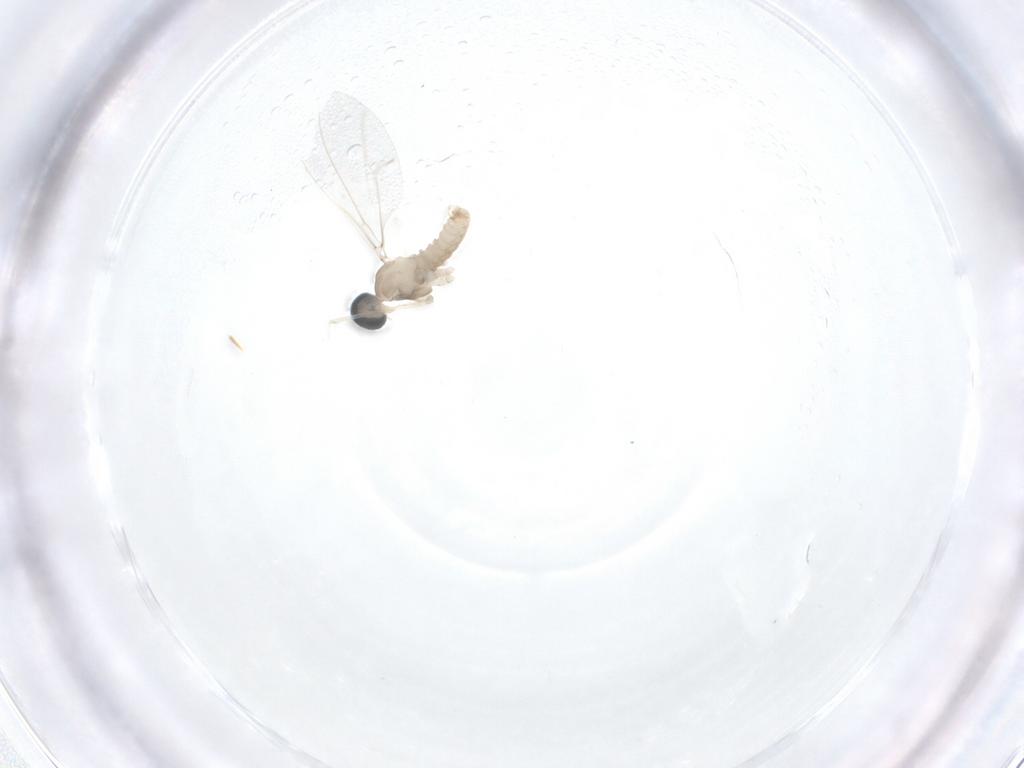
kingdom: Animalia
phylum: Arthropoda
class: Insecta
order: Diptera
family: Cecidomyiidae
